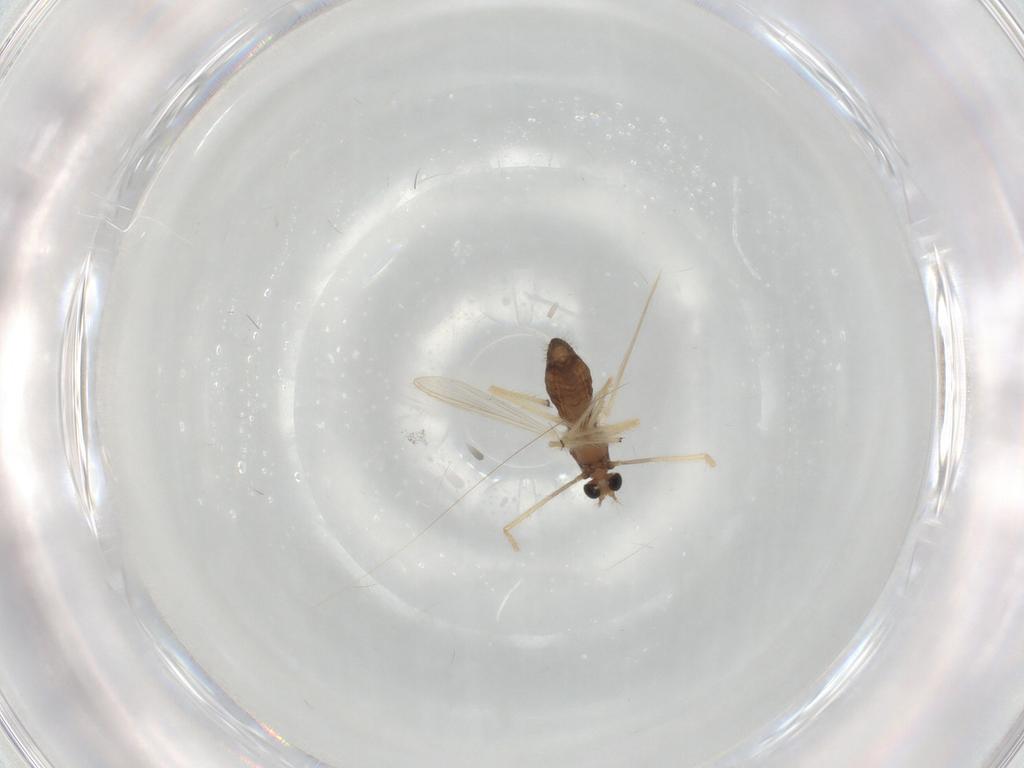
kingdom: Animalia
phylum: Arthropoda
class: Insecta
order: Diptera
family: Chironomidae
